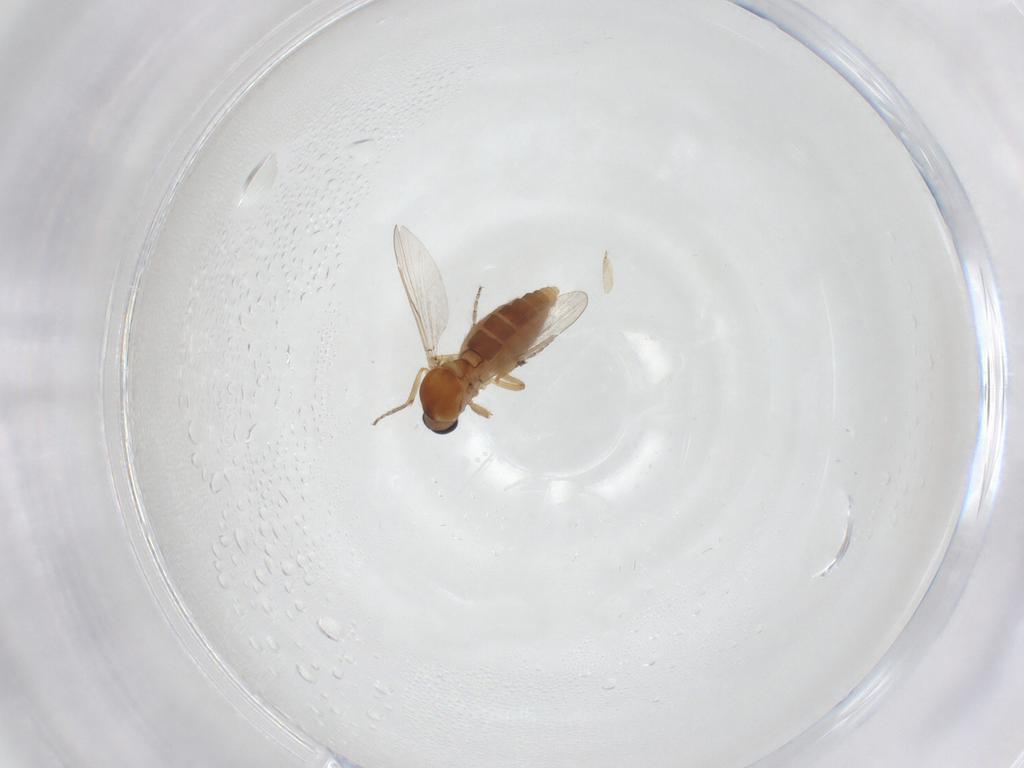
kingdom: Animalia
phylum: Arthropoda
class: Insecta
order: Diptera
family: Ceratopogonidae
